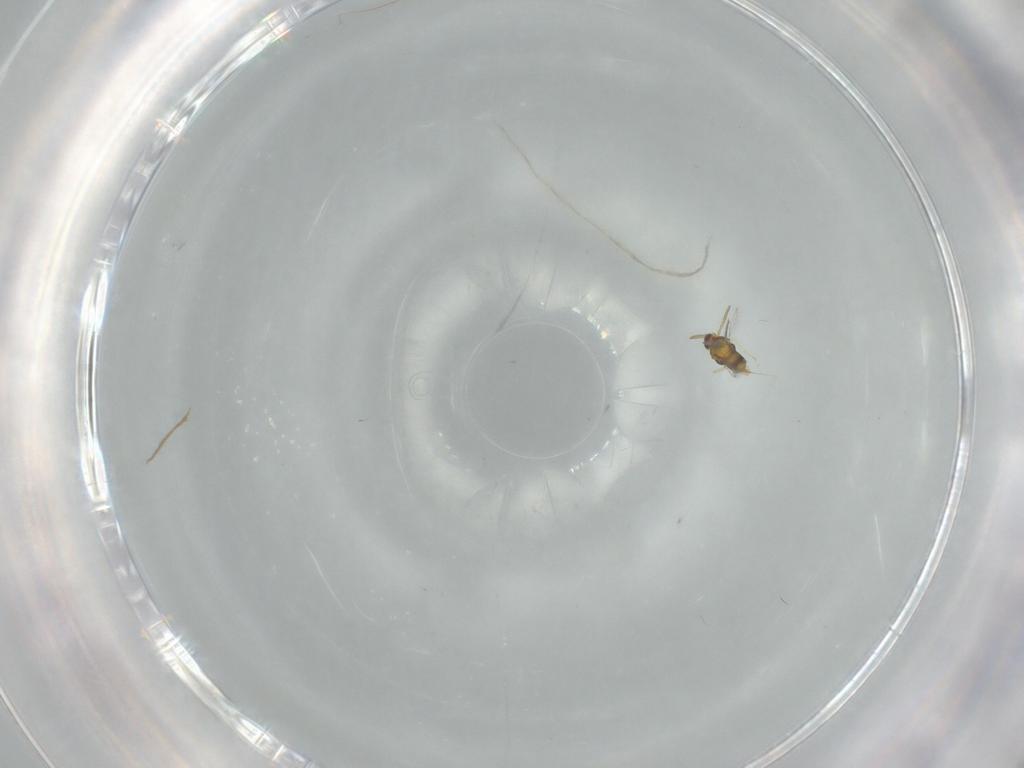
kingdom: Animalia
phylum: Arthropoda
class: Insecta
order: Hymenoptera
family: Aphelinidae
